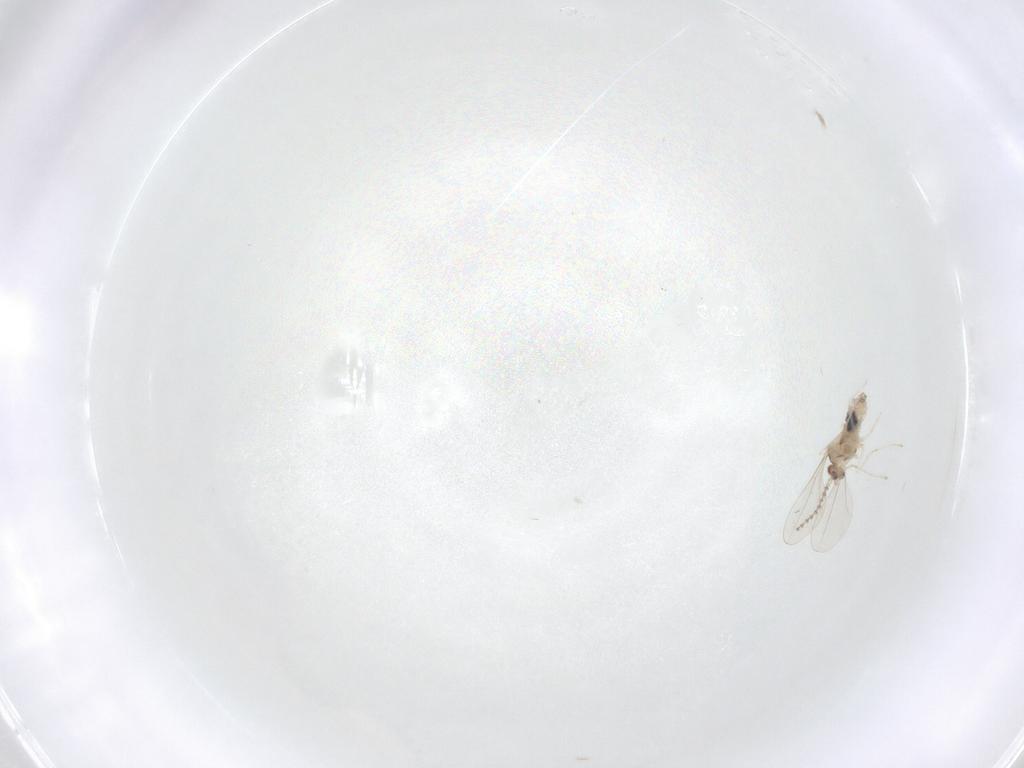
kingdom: Animalia
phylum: Arthropoda
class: Insecta
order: Diptera
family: Cecidomyiidae
